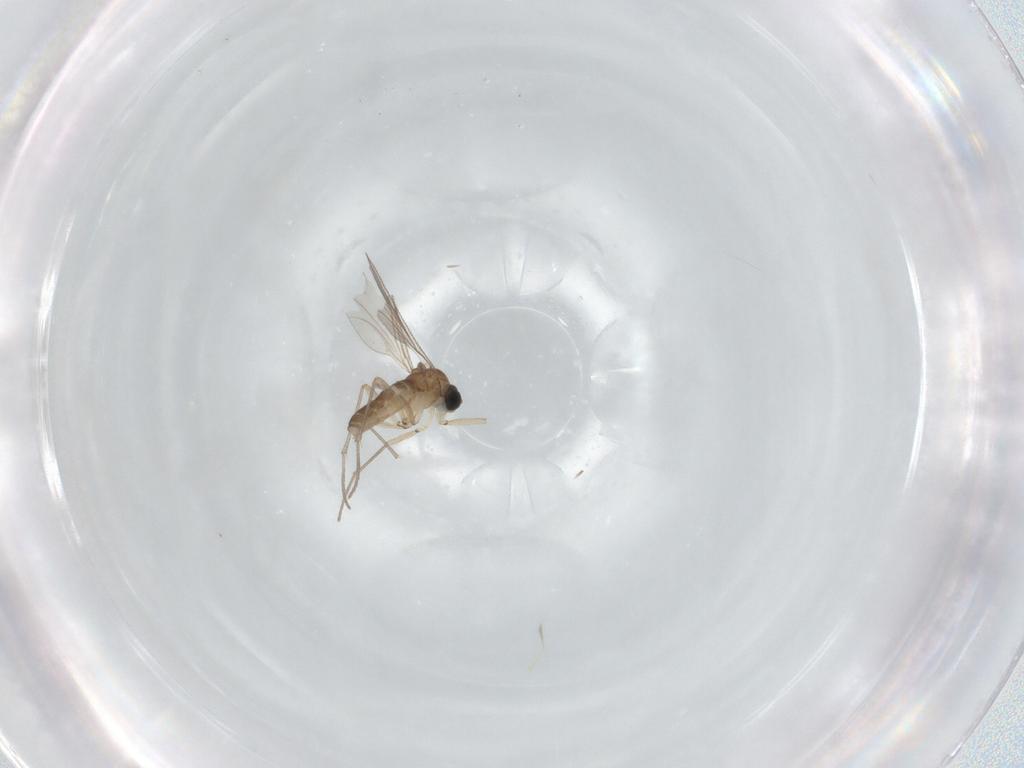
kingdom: Animalia
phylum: Arthropoda
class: Insecta
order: Diptera
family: Sciaridae
